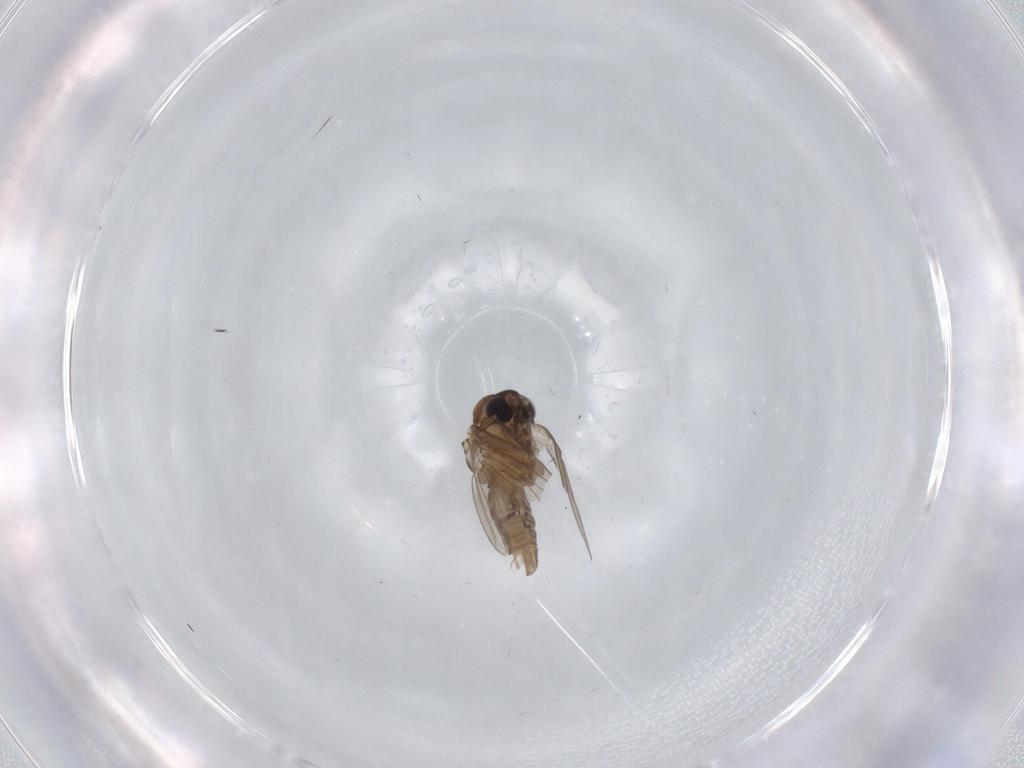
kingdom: Animalia
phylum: Arthropoda
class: Insecta
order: Diptera
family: Cecidomyiidae
